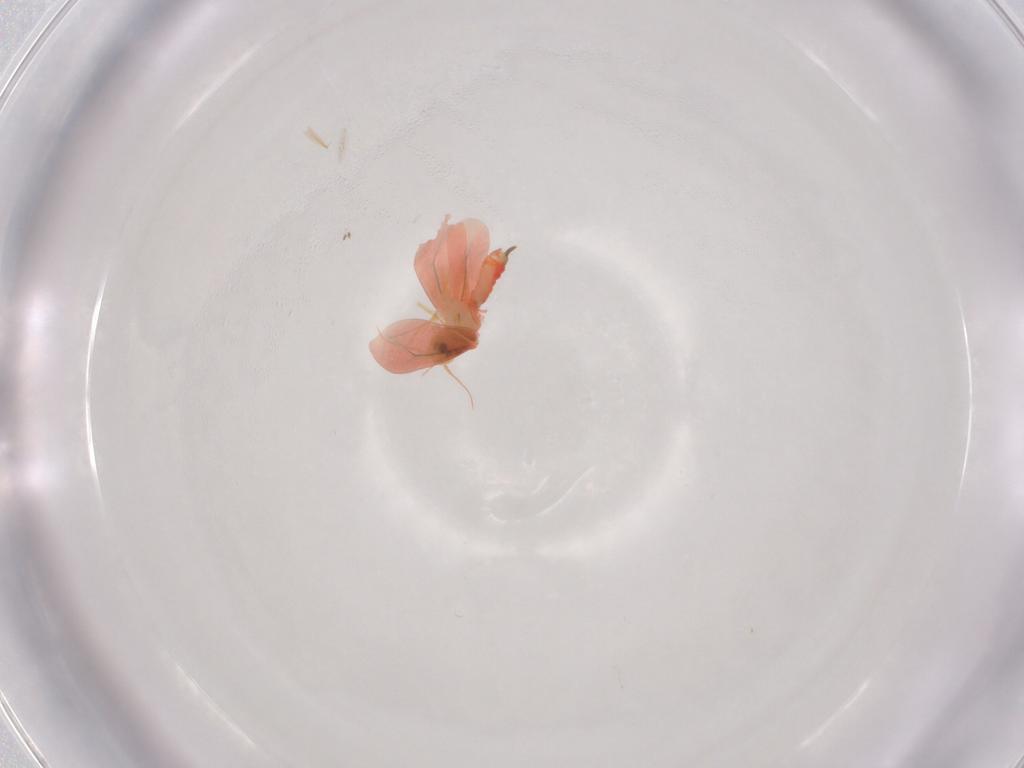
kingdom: Animalia
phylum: Arthropoda
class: Insecta
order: Hemiptera
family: Aleyrodidae
